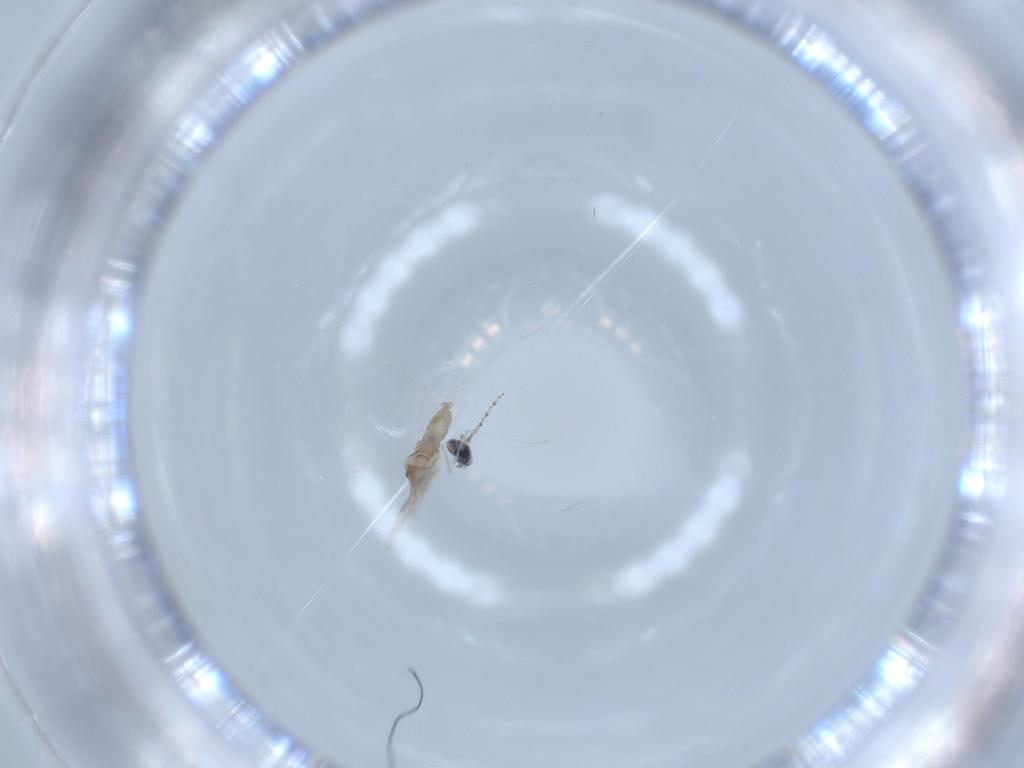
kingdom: Animalia
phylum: Arthropoda
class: Insecta
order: Diptera
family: Cecidomyiidae
